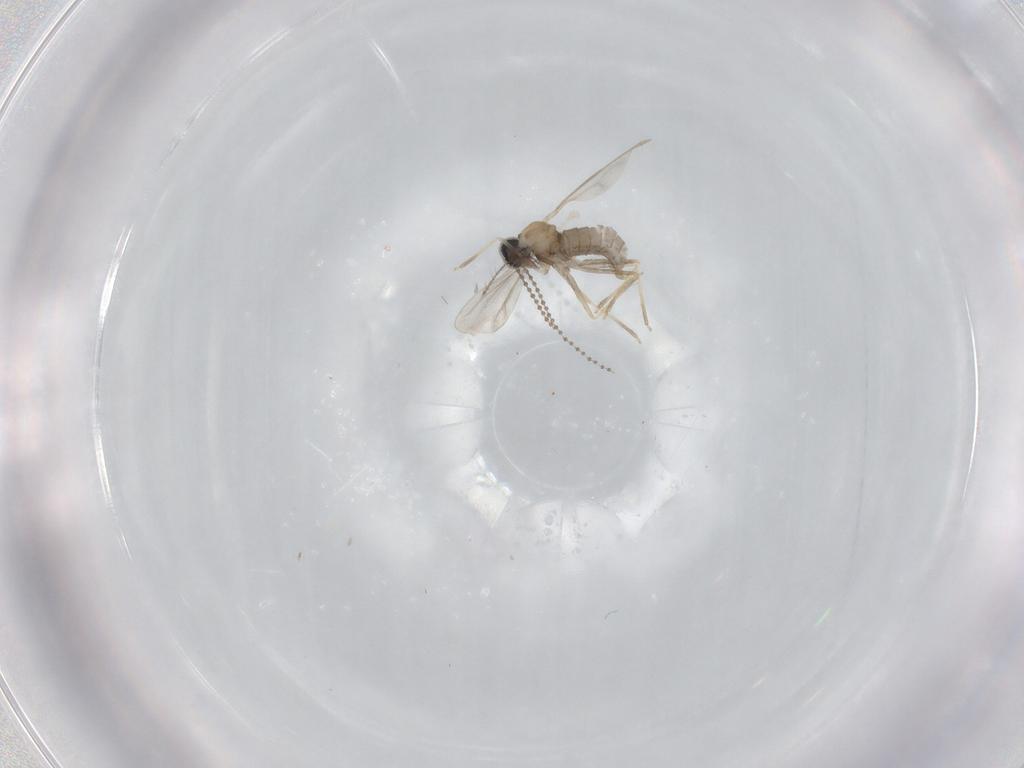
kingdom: Animalia
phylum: Arthropoda
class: Insecta
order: Diptera
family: Cecidomyiidae
